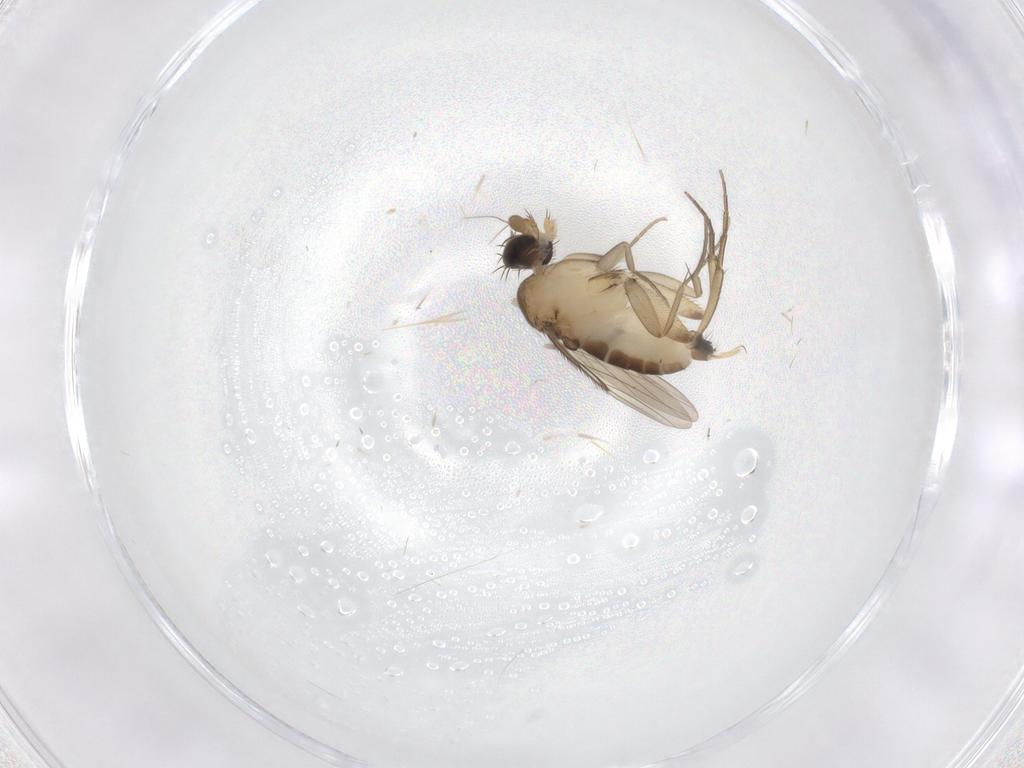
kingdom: Animalia
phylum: Arthropoda
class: Insecta
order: Diptera
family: Phoridae
